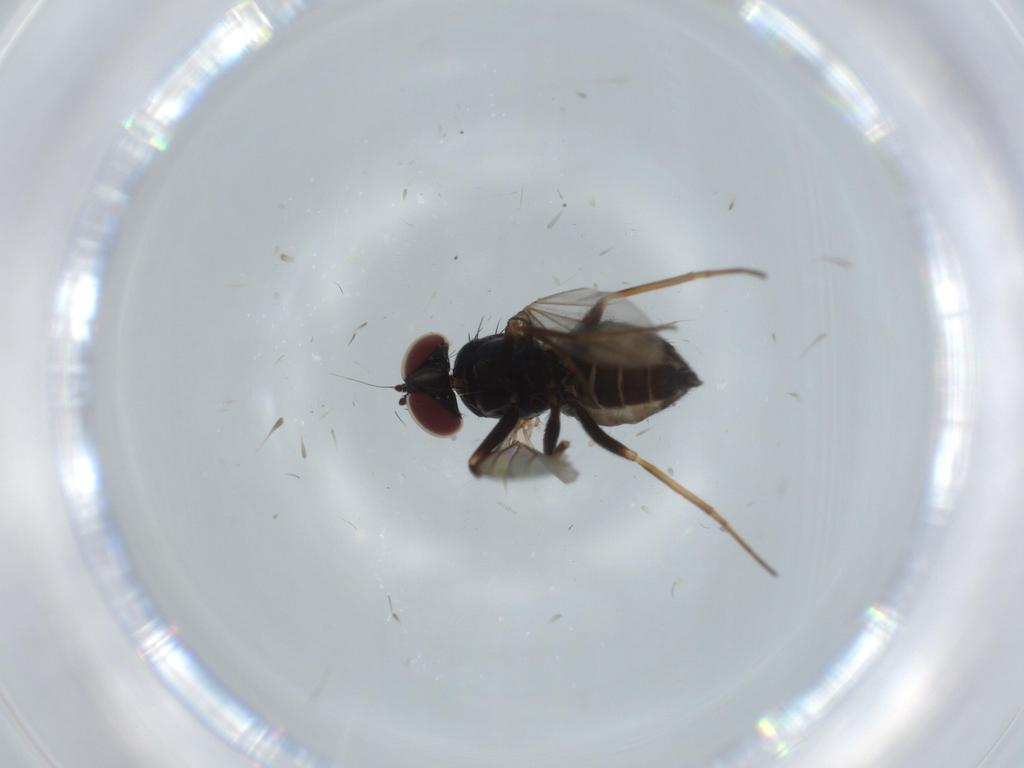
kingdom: Animalia
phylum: Arthropoda
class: Insecta
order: Diptera
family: Dolichopodidae
